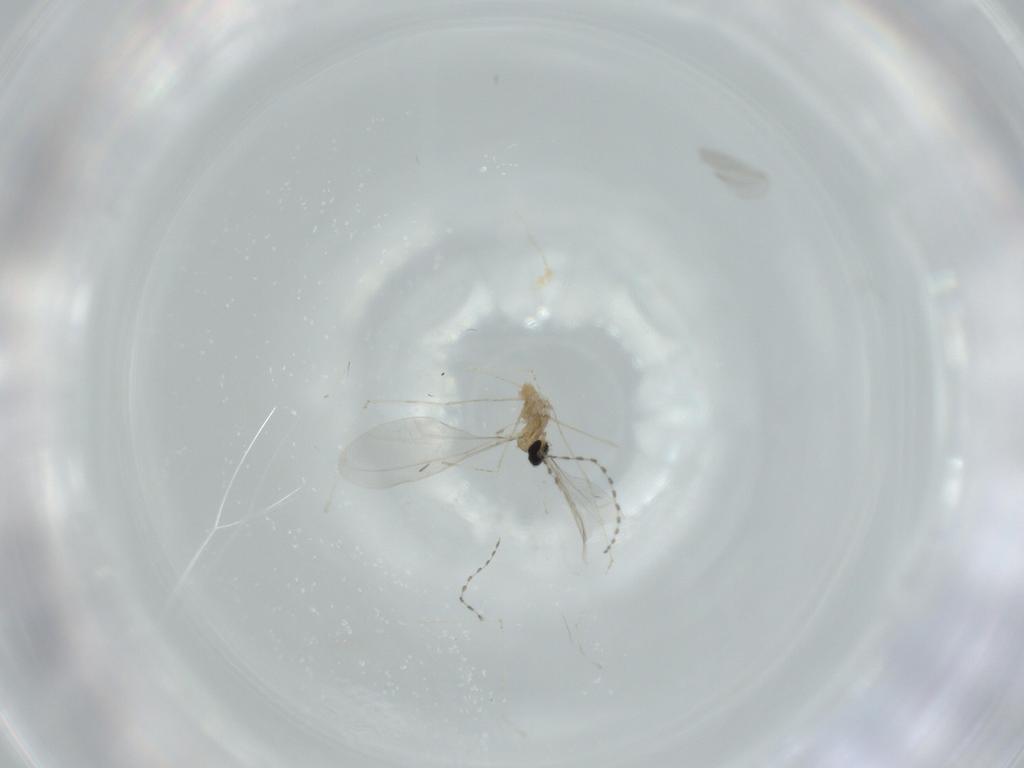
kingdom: Animalia
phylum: Arthropoda
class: Insecta
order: Diptera
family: Cecidomyiidae
